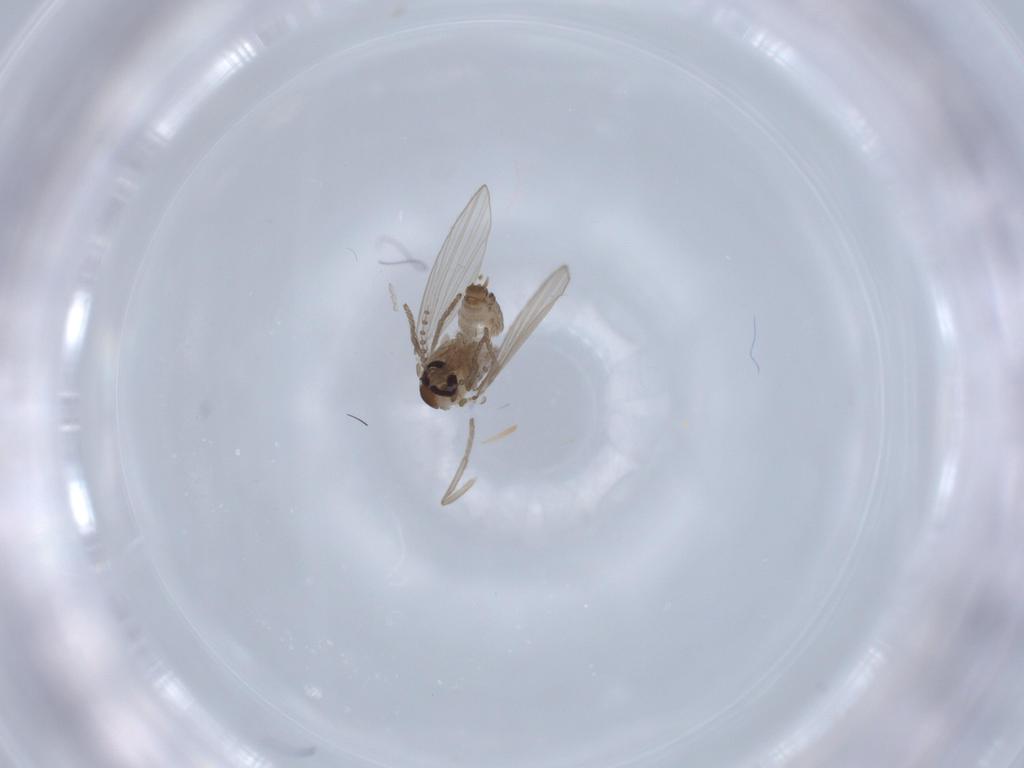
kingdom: Animalia
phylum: Arthropoda
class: Insecta
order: Diptera
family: Psychodidae
